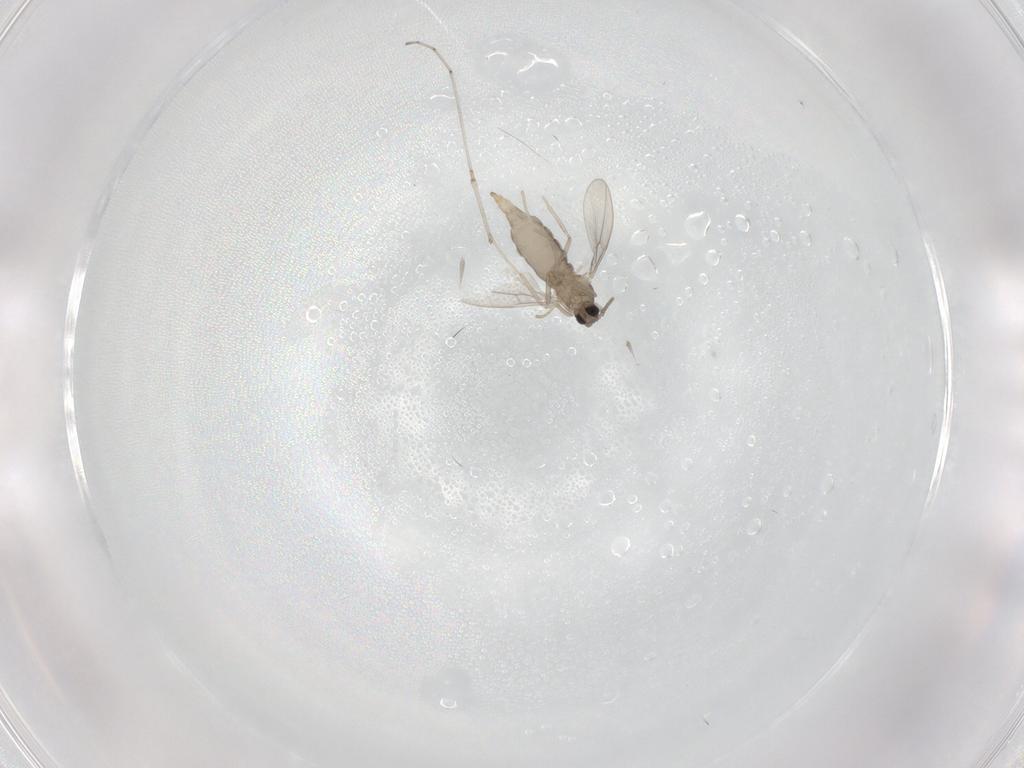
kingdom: Animalia
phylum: Arthropoda
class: Insecta
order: Diptera
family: Cecidomyiidae
